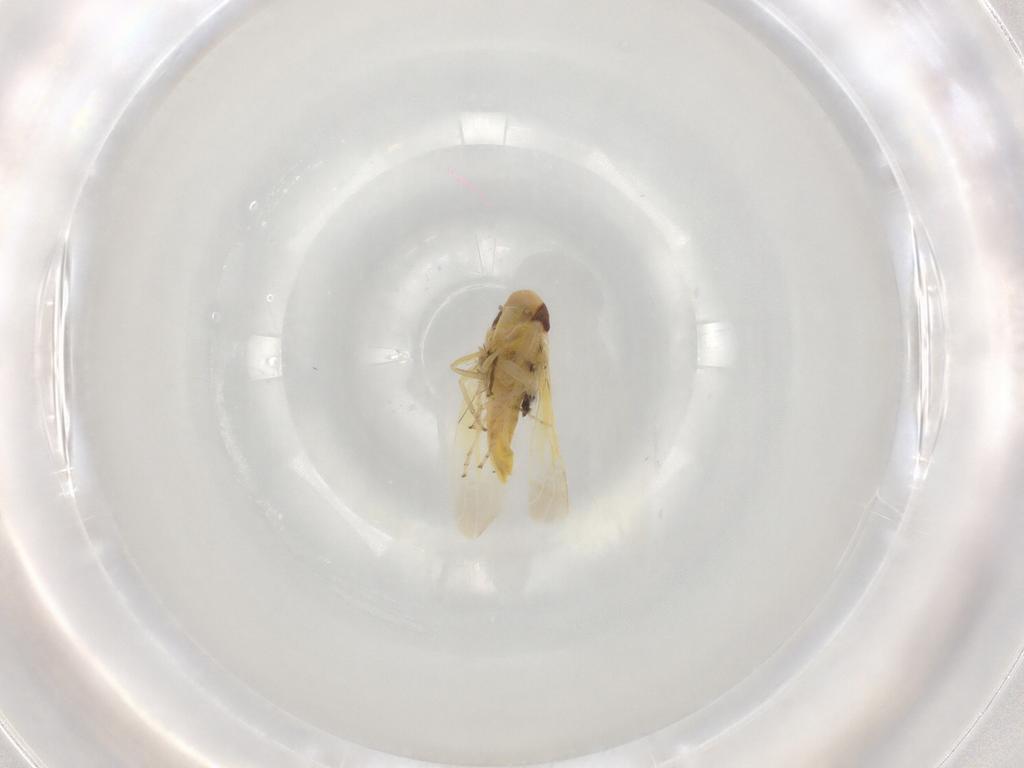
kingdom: Animalia
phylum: Arthropoda
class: Insecta
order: Hemiptera
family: Cicadellidae
